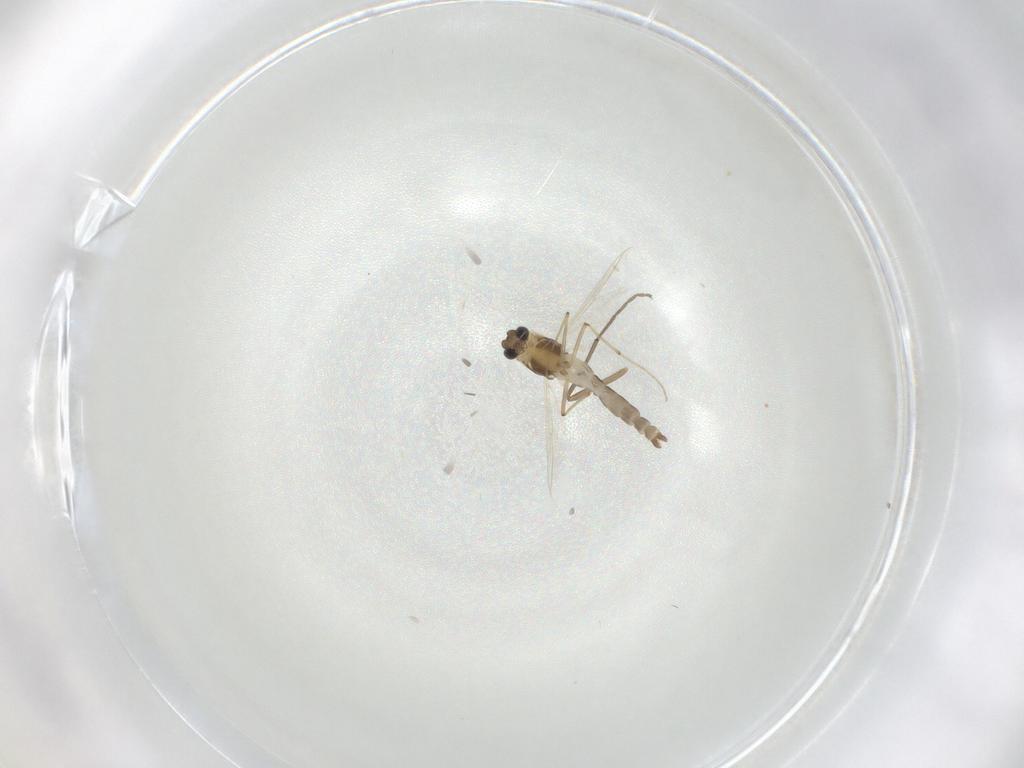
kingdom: Animalia
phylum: Arthropoda
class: Insecta
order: Diptera
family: Chironomidae
